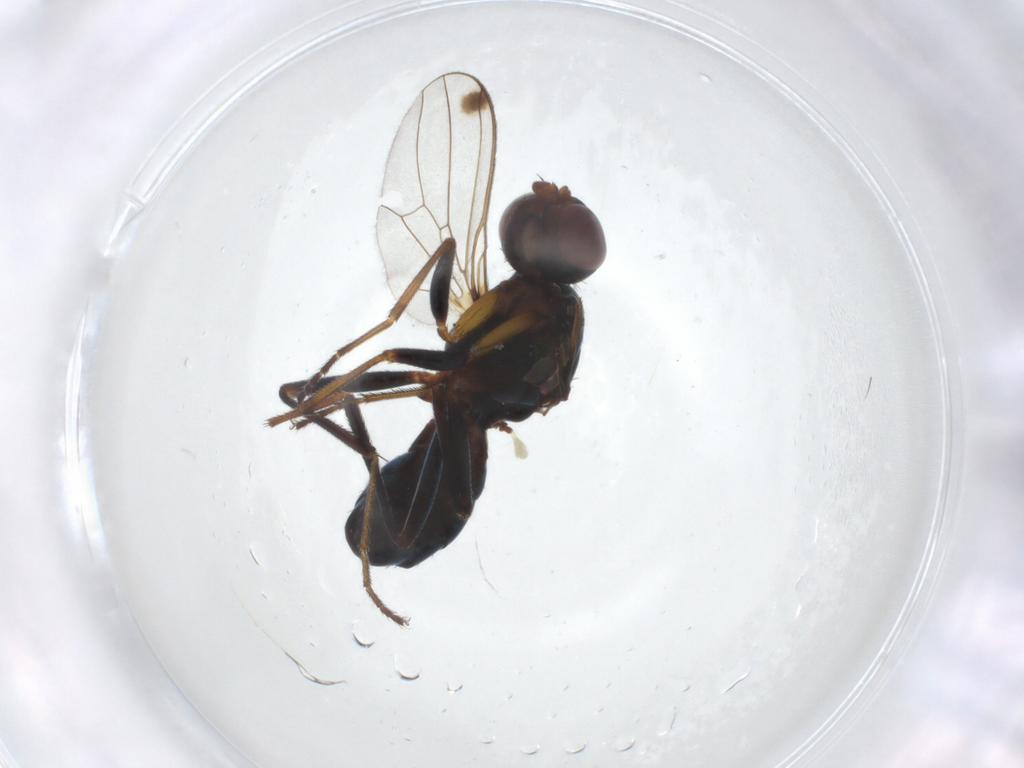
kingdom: Animalia
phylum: Arthropoda
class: Insecta
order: Diptera
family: Sepsidae
